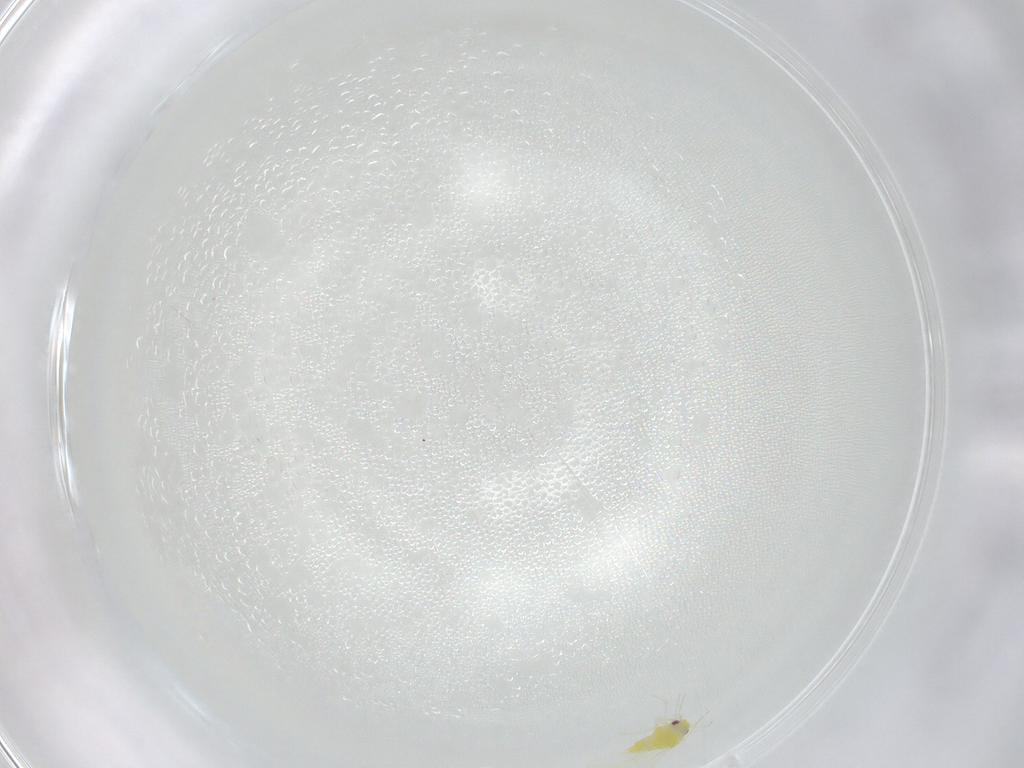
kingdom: Animalia
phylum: Arthropoda
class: Insecta
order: Hemiptera
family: Aleyrodidae
